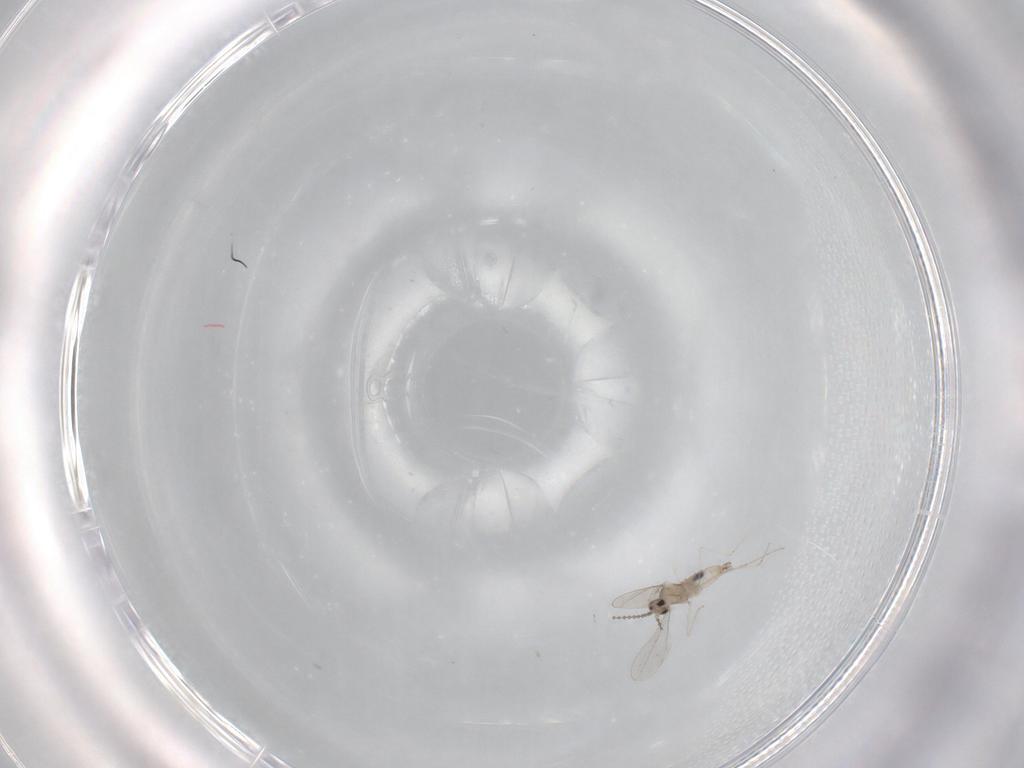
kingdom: Animalia
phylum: Arthropoda
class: Insecta
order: Diptera
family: Cecidomyiidae
